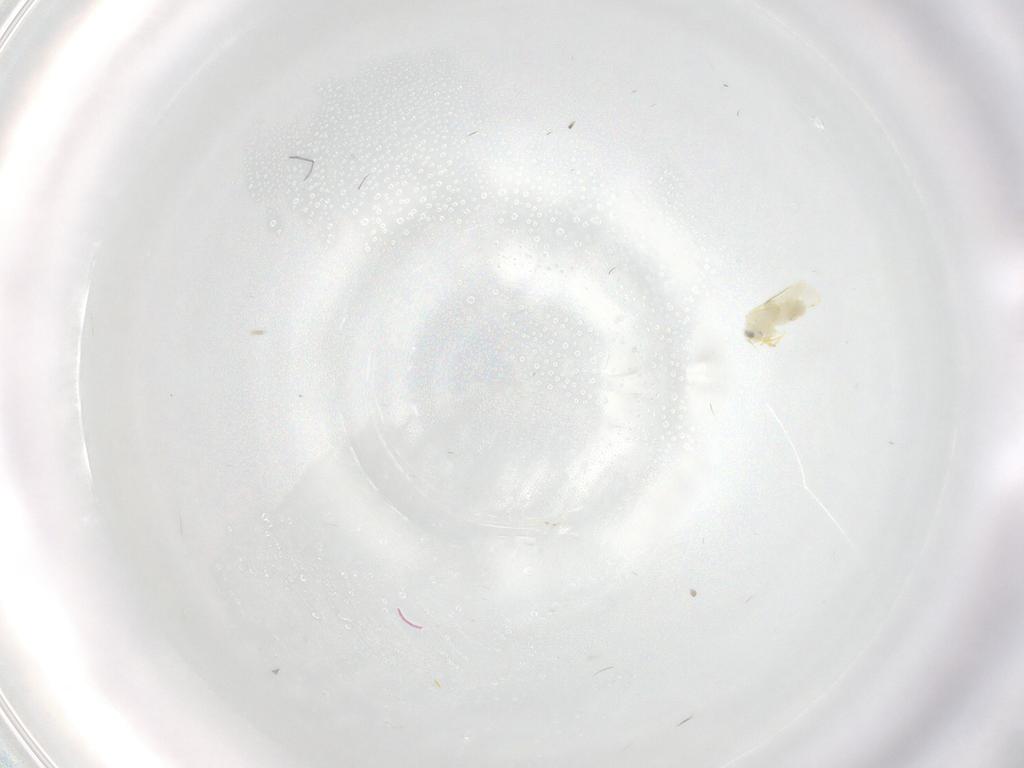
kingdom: Animalia
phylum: Arthropoda
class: Insecta
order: Hemiptera
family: Aleyrodidae
